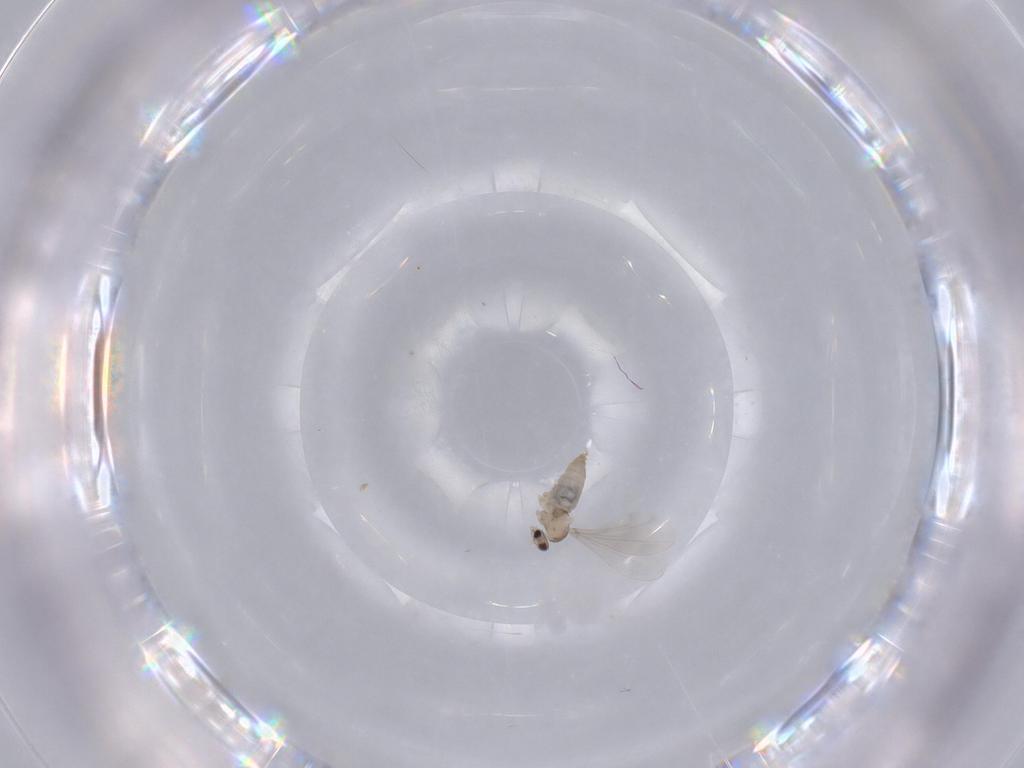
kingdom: Animalia
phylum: Arthropoda
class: Insecta
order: Diptera
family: Cecidomyiidae
